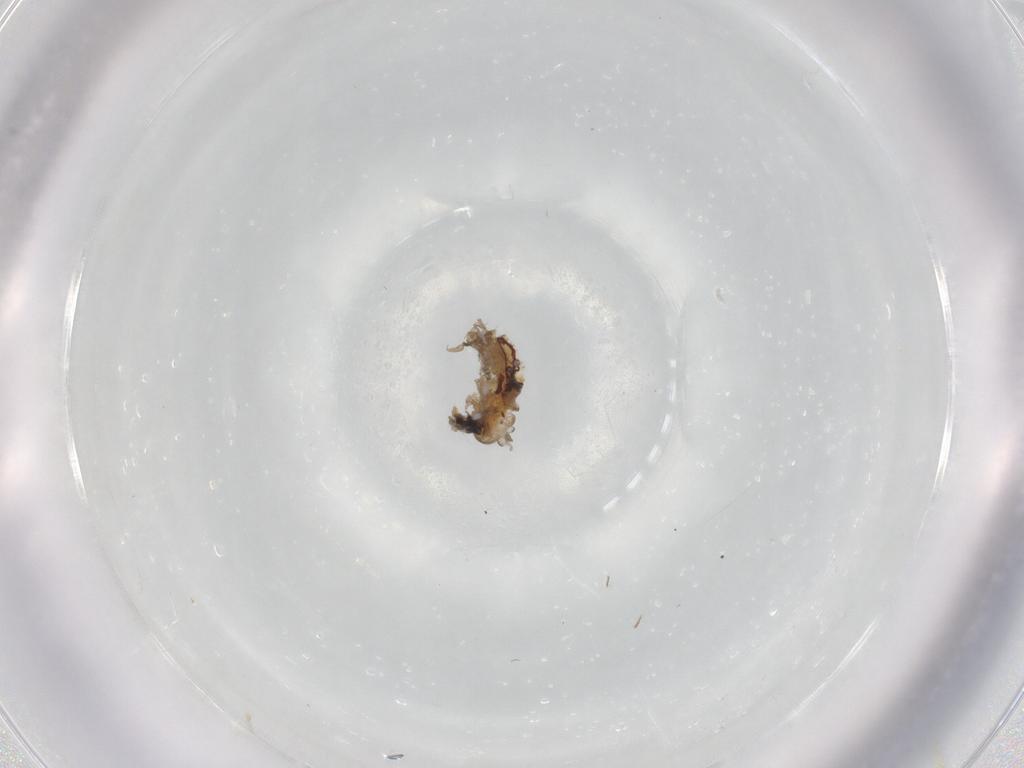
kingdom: Animalia
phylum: Arthropoda
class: Insecta
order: Diptera
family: Psychodidae
